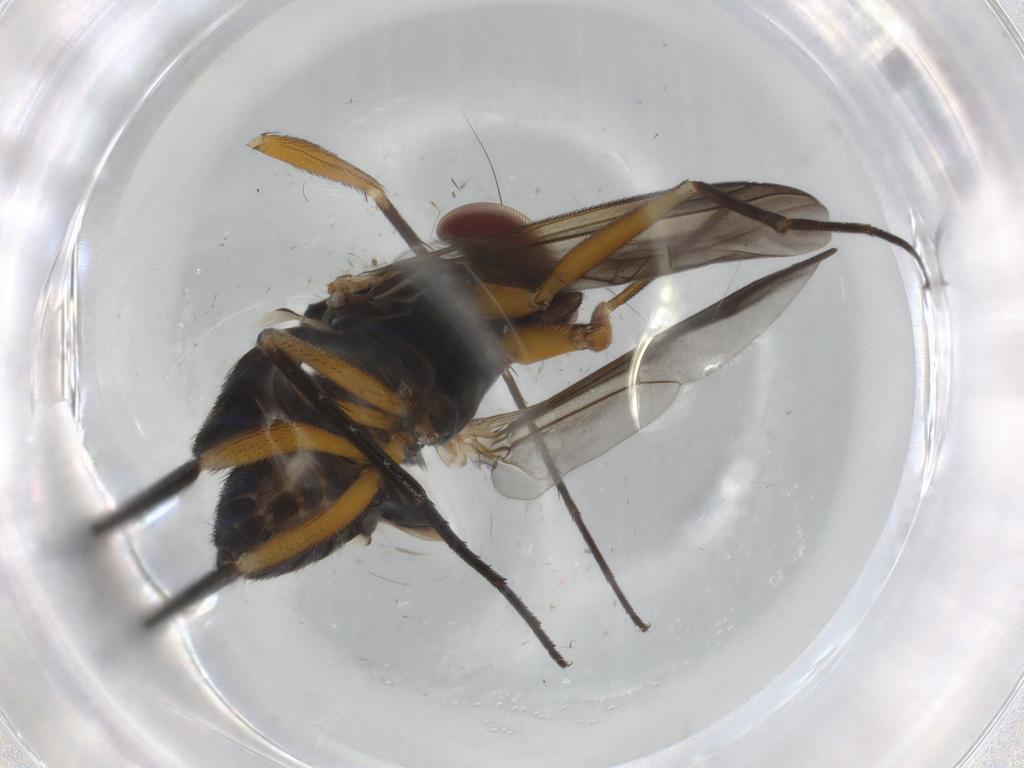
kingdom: Animalia
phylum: Arthropoda
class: Insecta
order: Diptera
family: Dolichopodidae
